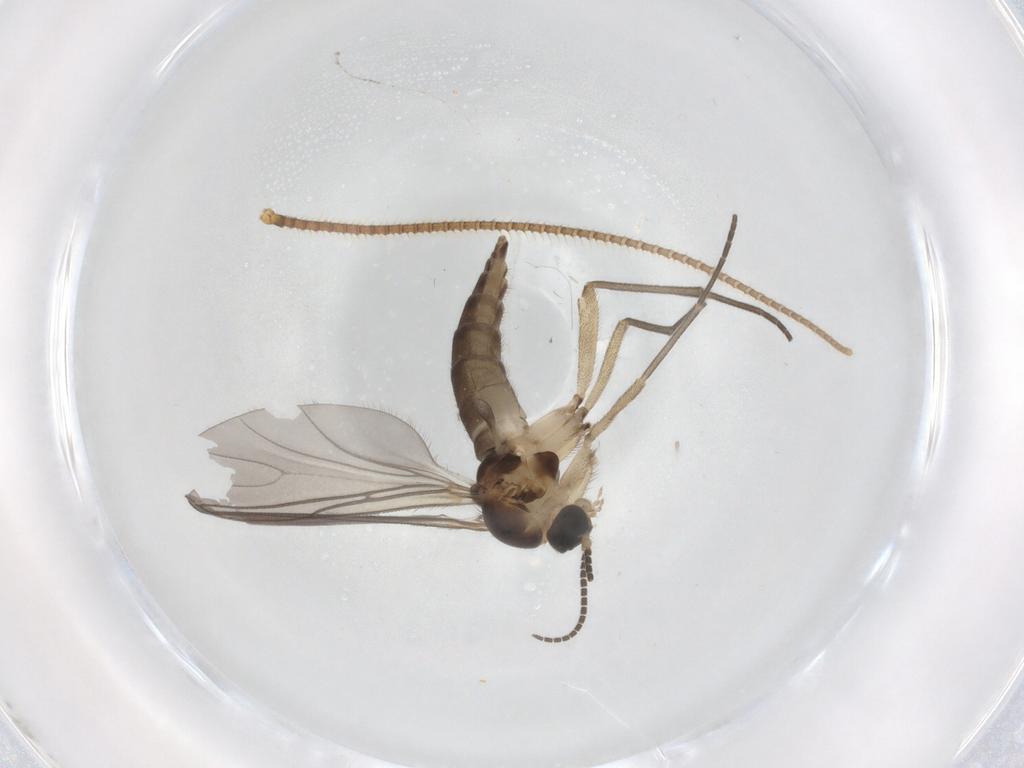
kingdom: Animalia
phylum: Arthropoda
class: Insecta
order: Diptera
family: Sciaridae
